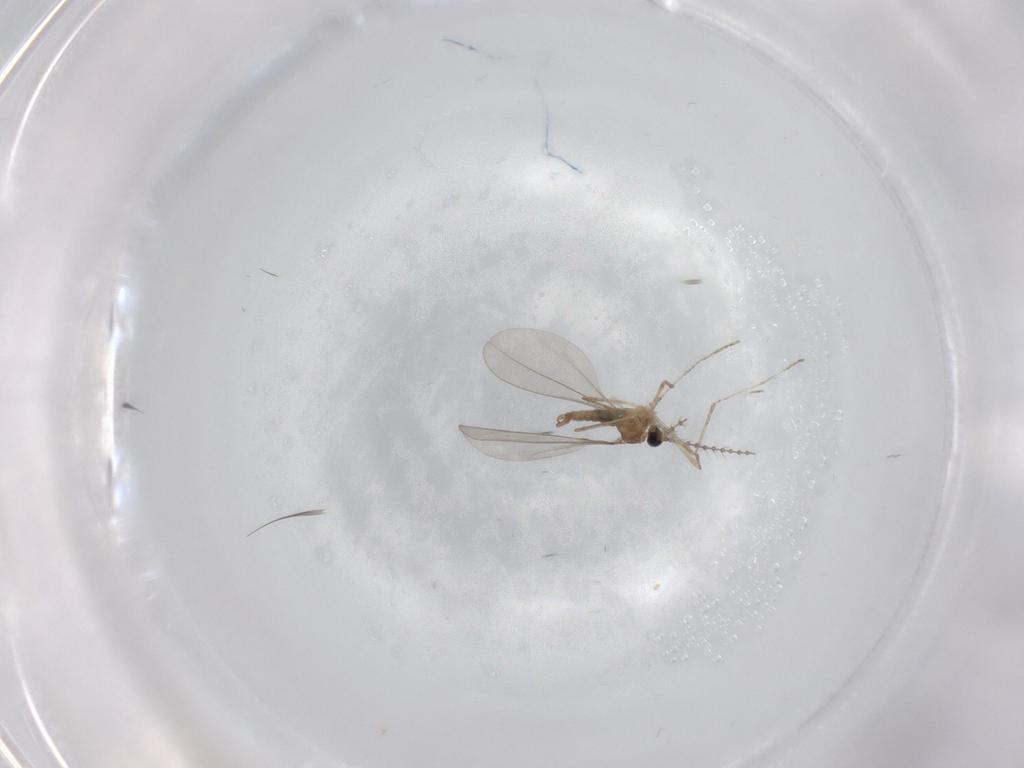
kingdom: Animalia
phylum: Arthropoda
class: Insecta
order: Diptera
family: Cecidomyiidae
